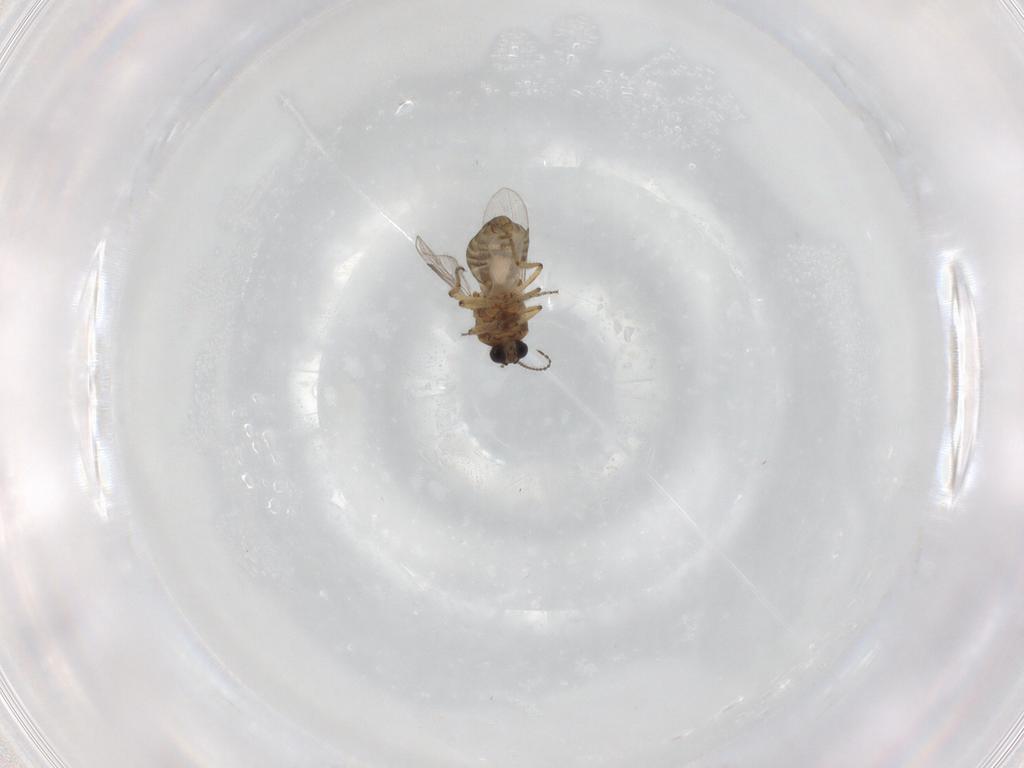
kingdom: Animalia
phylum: Arthropoda
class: Insecta
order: Diptera
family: Ceratopogonidae
